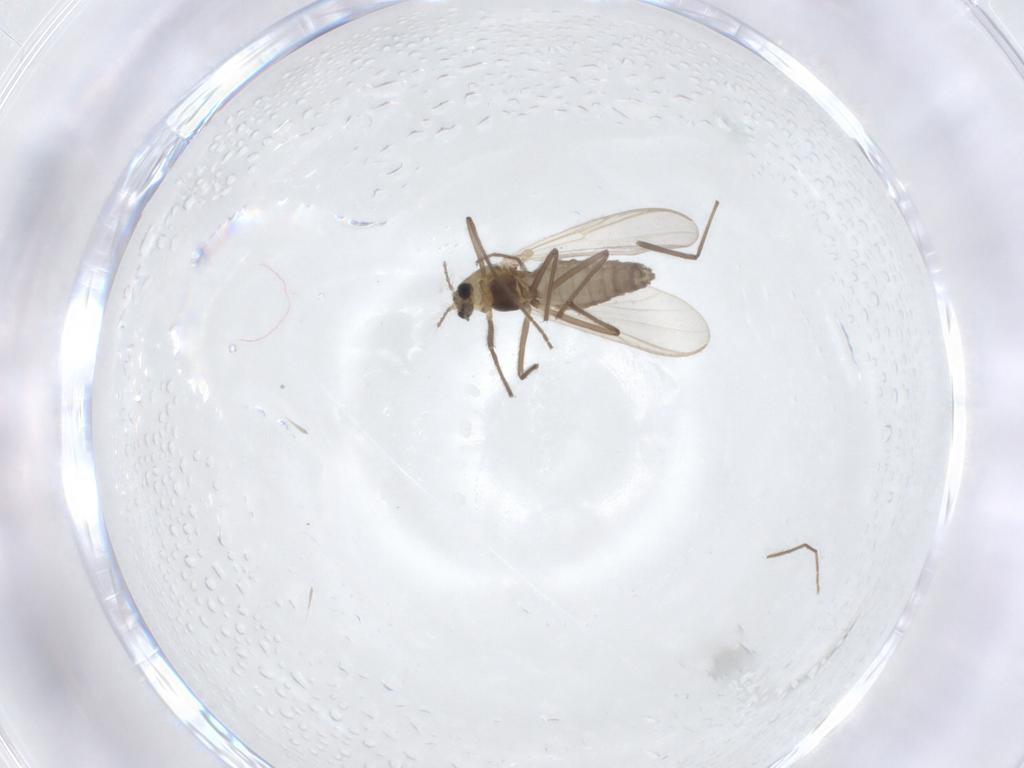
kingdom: Animalia
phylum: Arthropoda
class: Insecta
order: Diptera
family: Chironomidae
